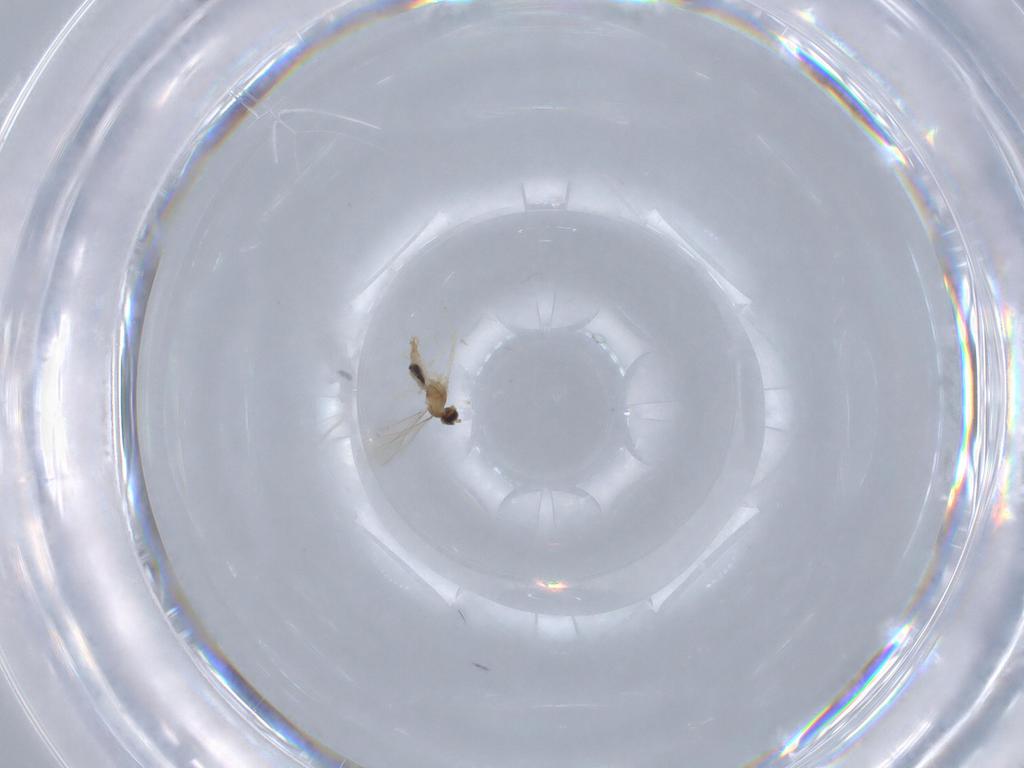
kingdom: Animalia
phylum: Arthropoda
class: Insecta
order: Diptera
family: Cecidomyiidae
